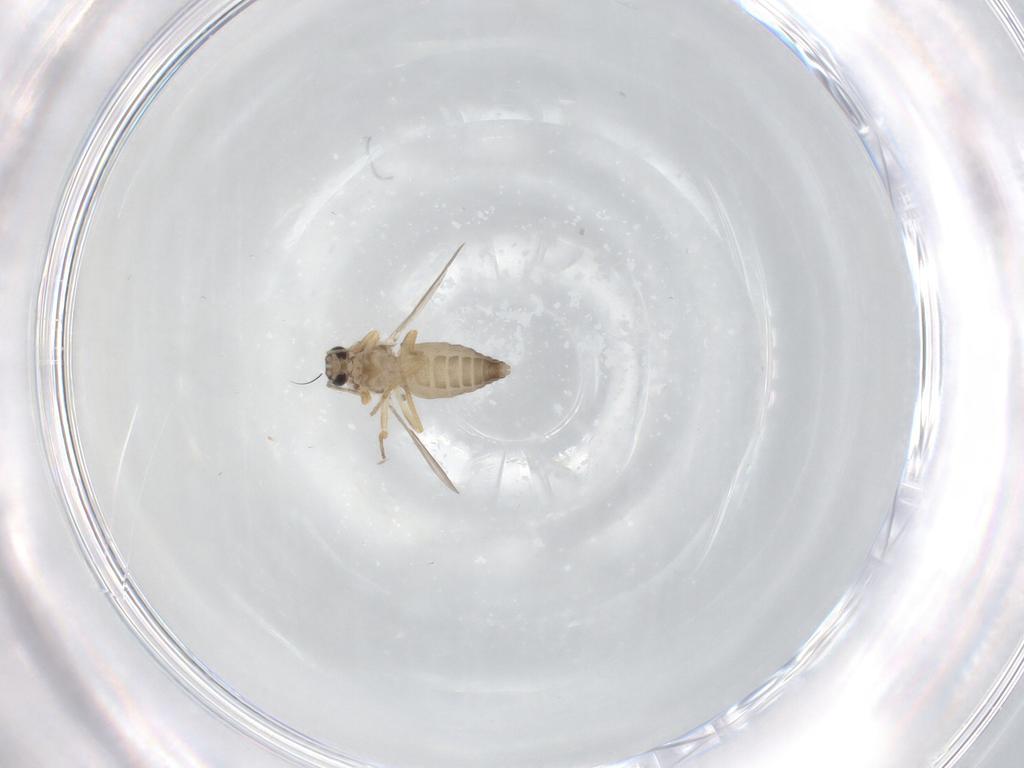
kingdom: Animalia
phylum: Arthropoda
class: Insecta
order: Diptera
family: Ceratopogonidae
